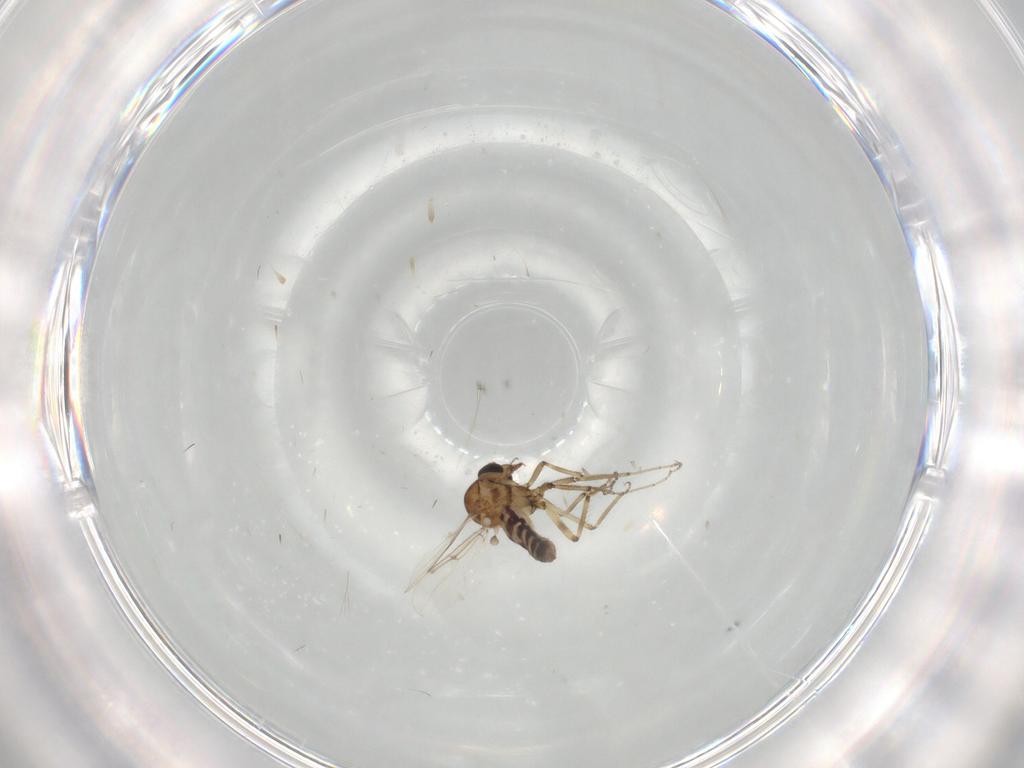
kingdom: Animalia
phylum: Arthropoda
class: Insecta
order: Diptera
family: Ceratopogonidae
